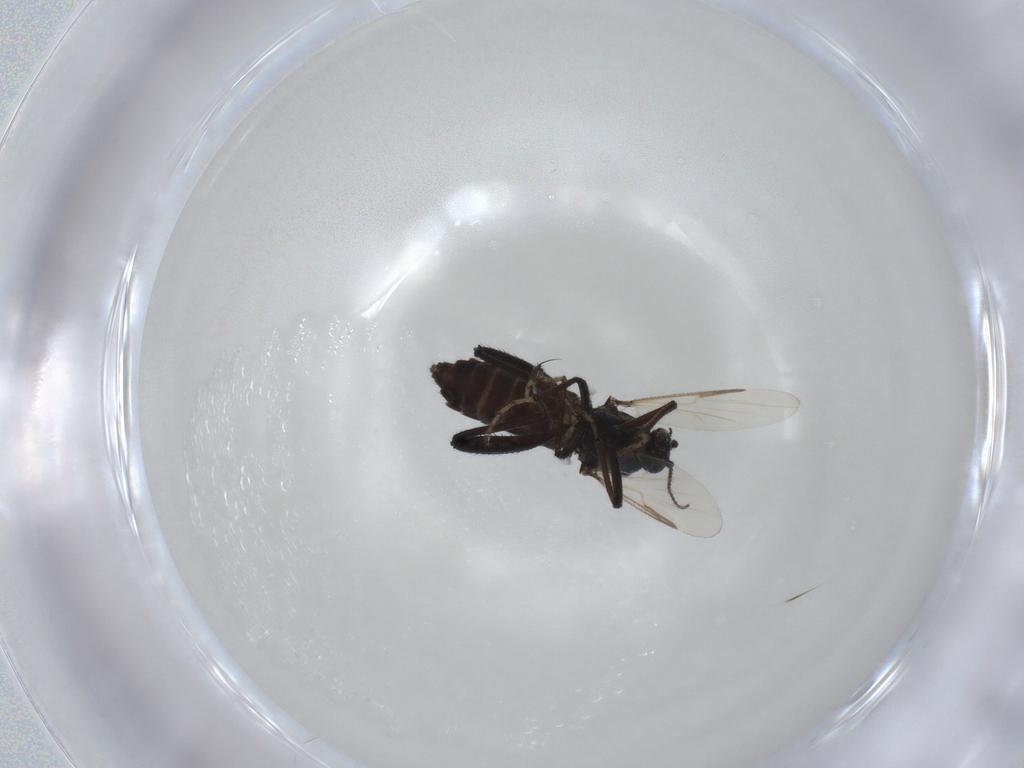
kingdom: Animalia
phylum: Arthropoda
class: Insecta
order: Diptera
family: Ceratopogonidae
